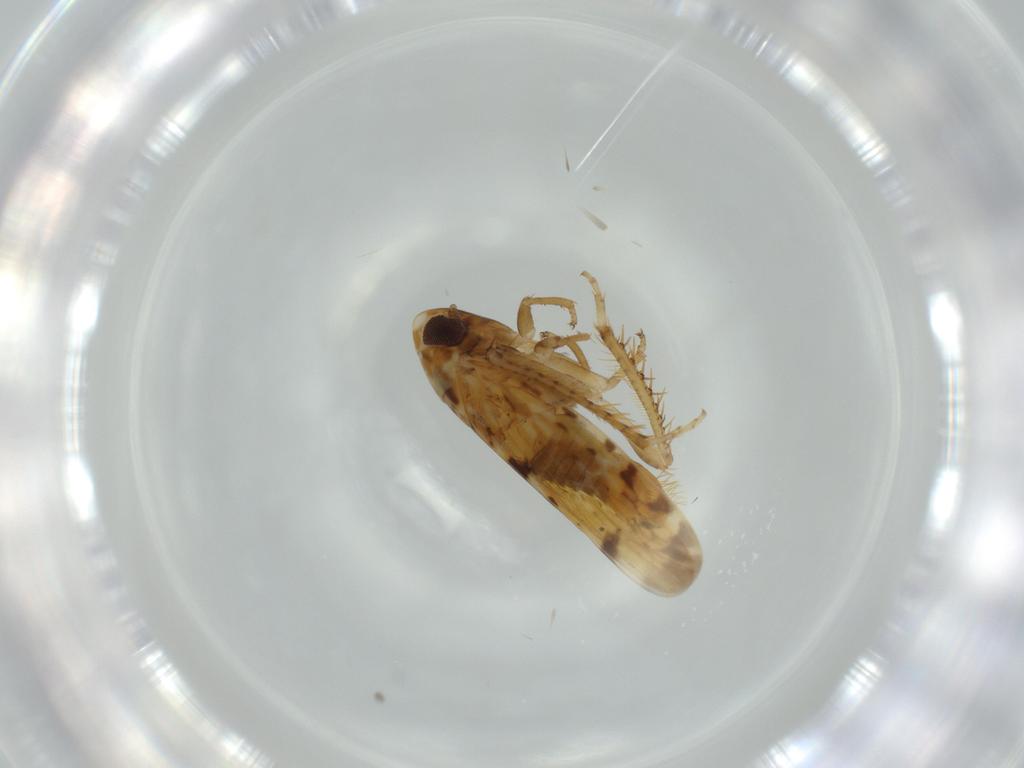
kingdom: Animalia
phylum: Arthropoda
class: Insecta
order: Hemiptera
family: Cicadellidae
